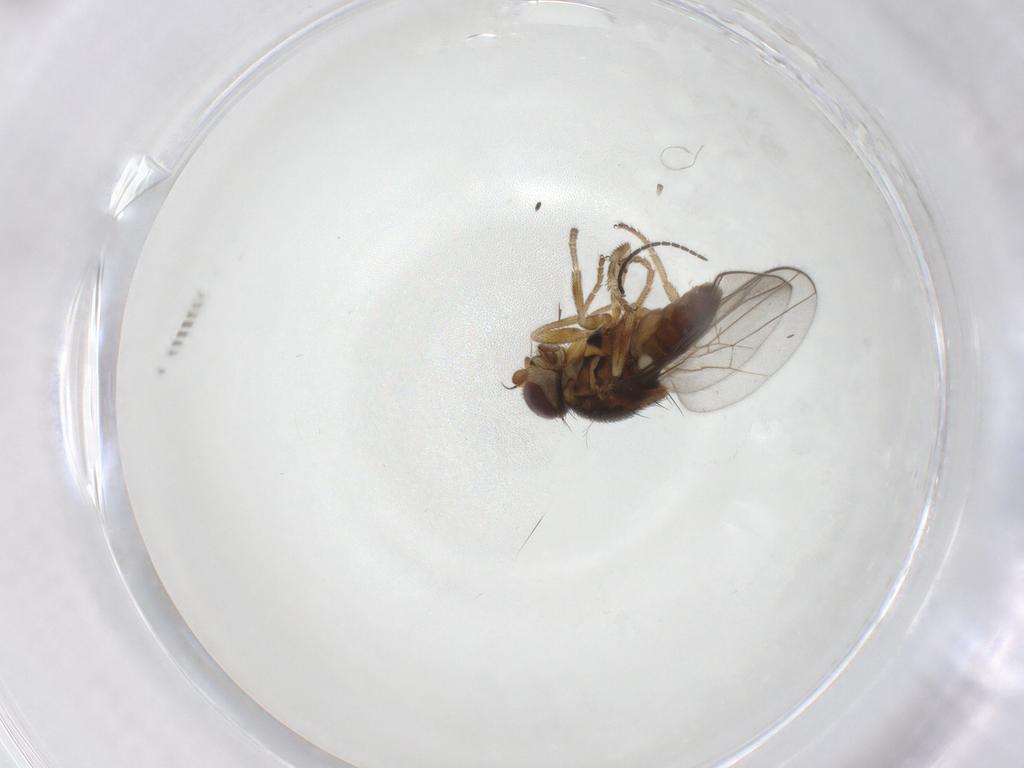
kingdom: Animalia
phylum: Arthropoda
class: Insecta
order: Diptera
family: Chloropidae
